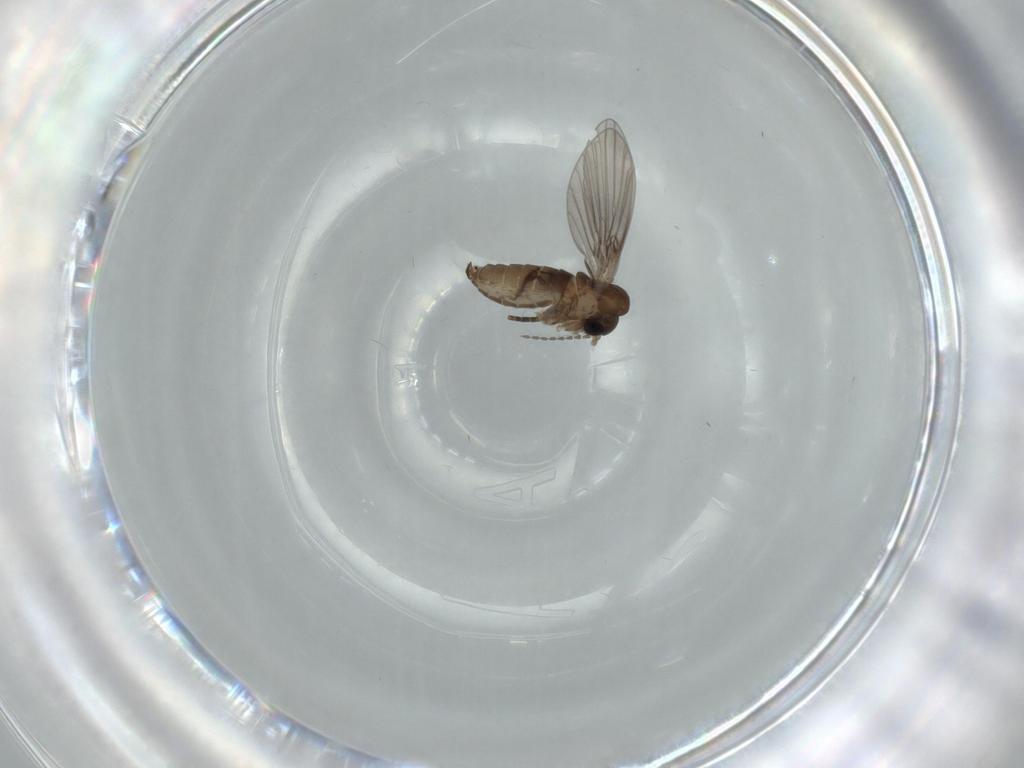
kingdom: Animalia
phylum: Arthropoda
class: Insecta
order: Diptera
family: Psychodidae
